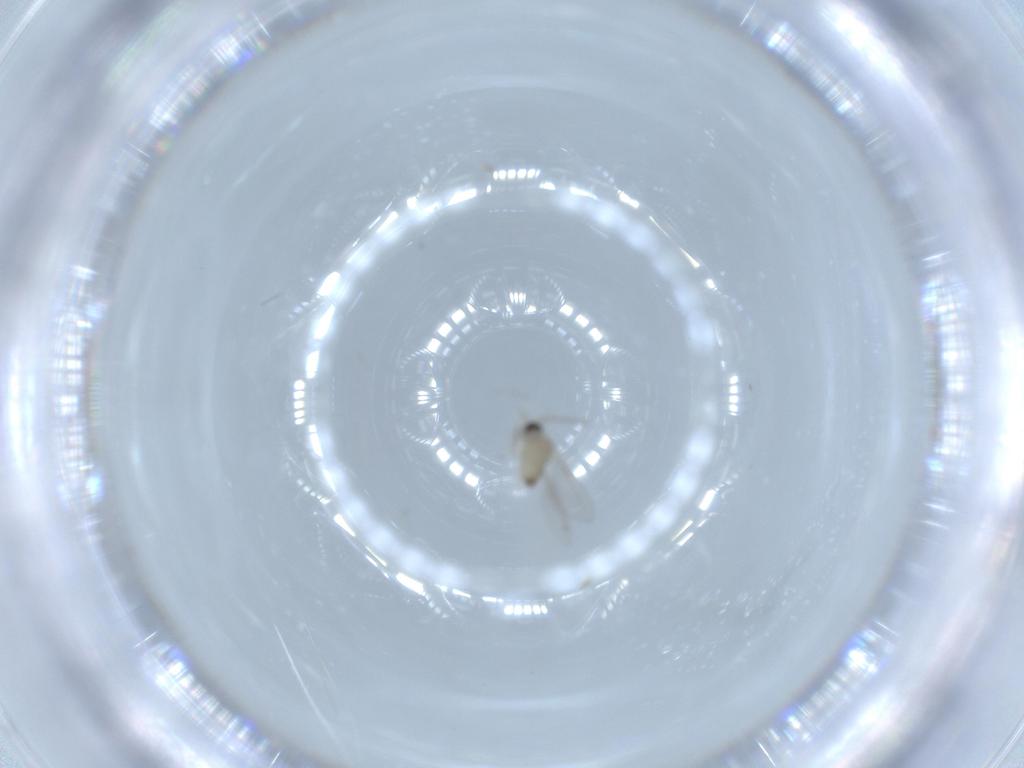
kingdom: Animalia
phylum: Arthropoda
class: Insecta
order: Diptera
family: Cecidomyiidae
